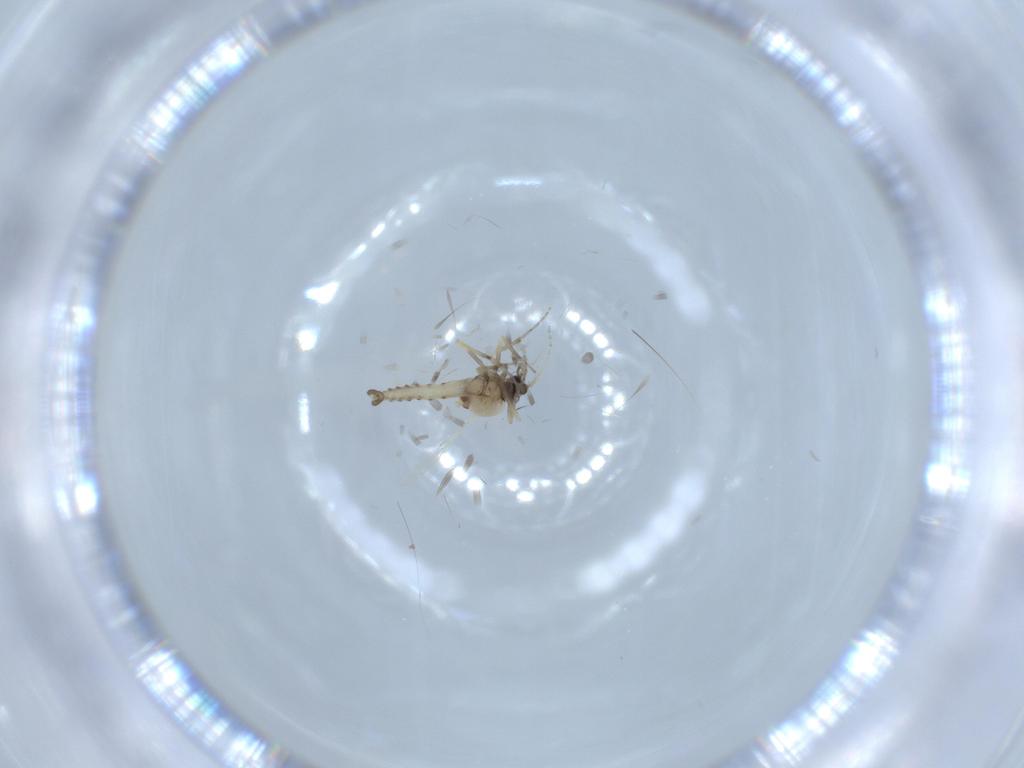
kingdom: Animalia
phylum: Arthropoda
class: Insecta
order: Diptera
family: Ceratopogonidae
